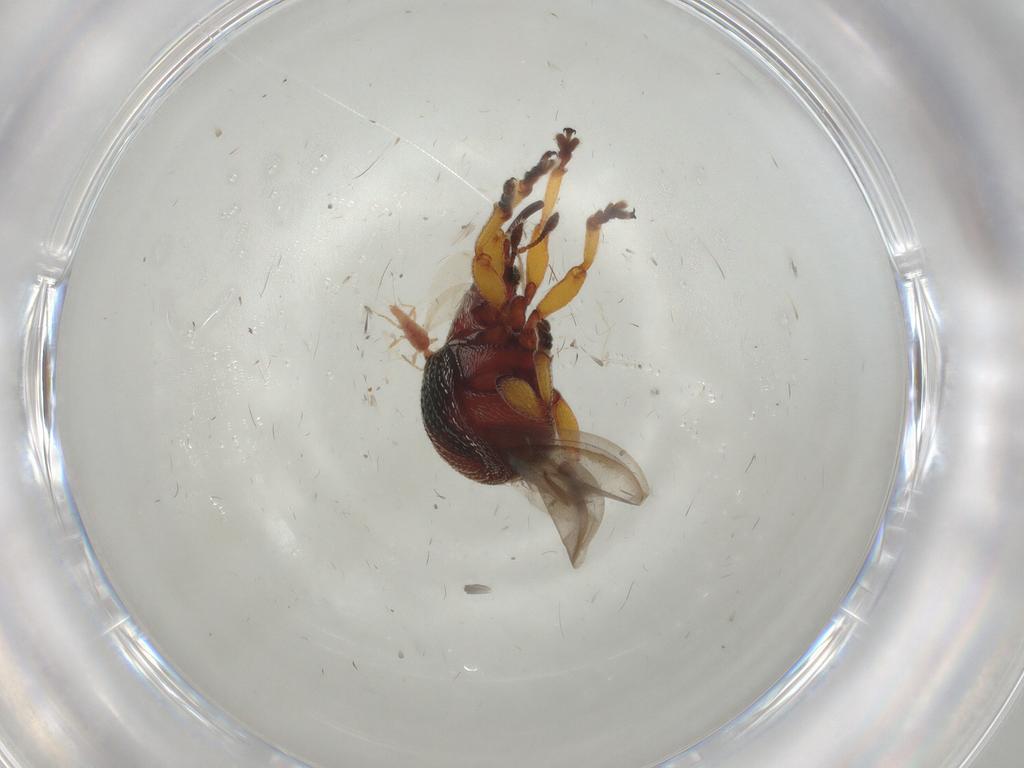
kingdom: Animalia
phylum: Arthropoda
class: Insecta
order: Coleoptera
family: Brentidae
